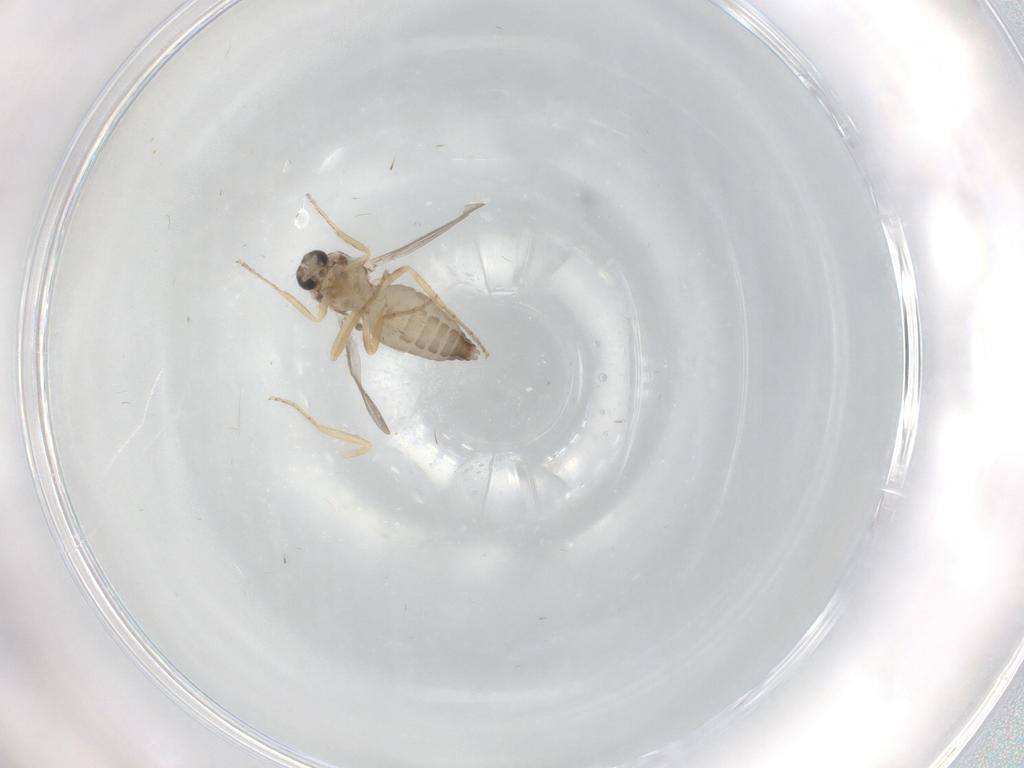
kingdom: Animalia
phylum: Arthropoda
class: Insecta
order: Diptera
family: Ceratopogonidae
